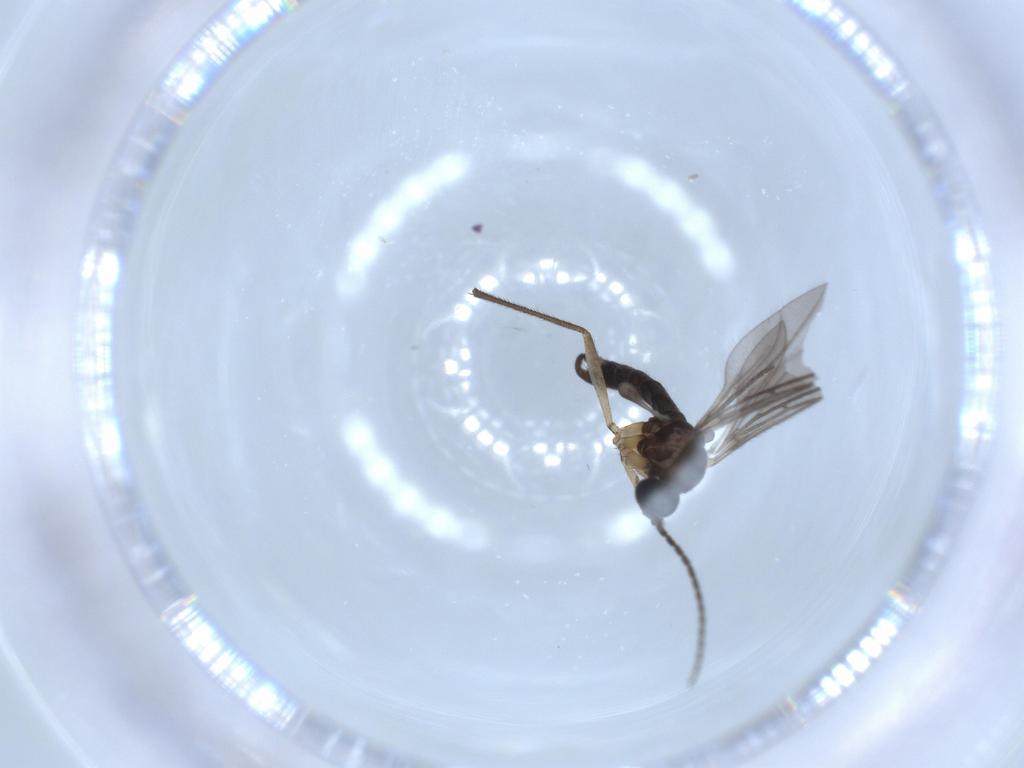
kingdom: Animalia
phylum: Arthropoda
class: Insecta
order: Diptera
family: Sciaridae
